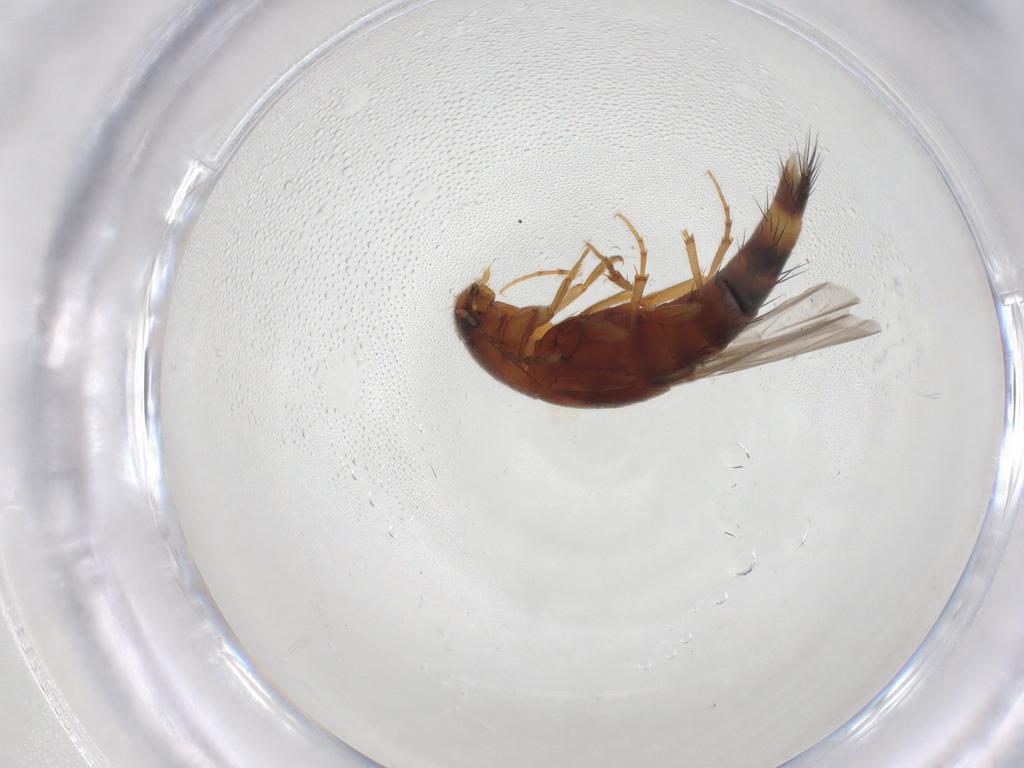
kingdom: Animalia
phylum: Arthropoda
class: Insecta
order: Coleoptera
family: Staphylinidae
